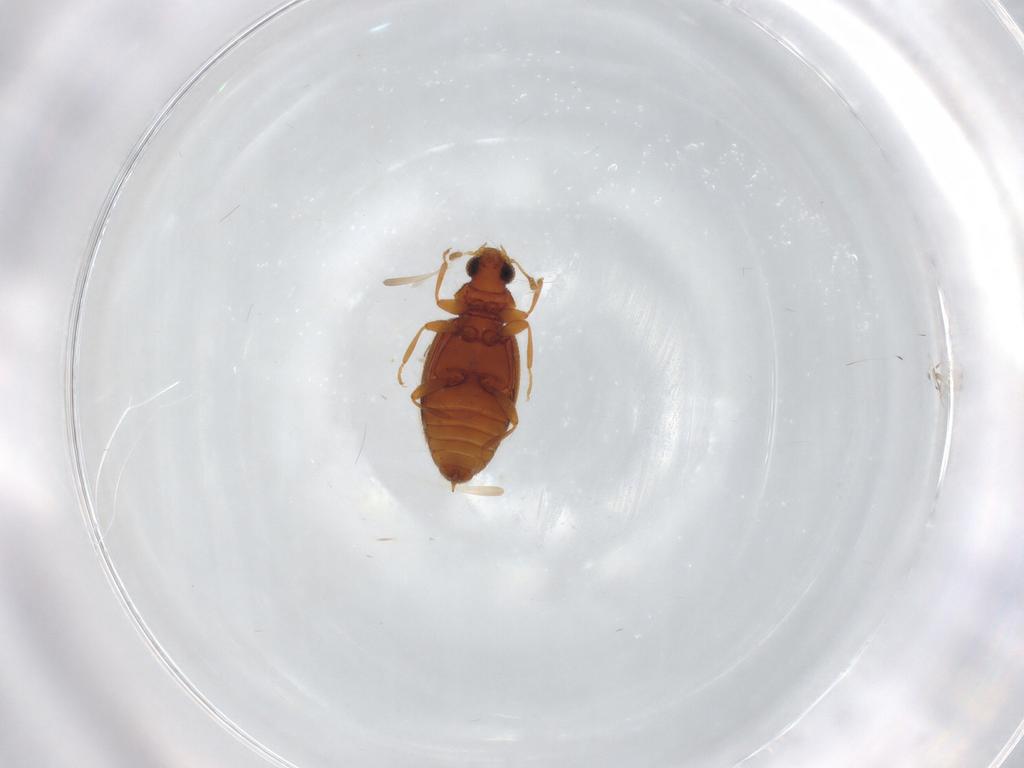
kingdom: Animalia
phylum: Arthropoda
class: Insecta
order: Coleoptera
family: Latridiidae
